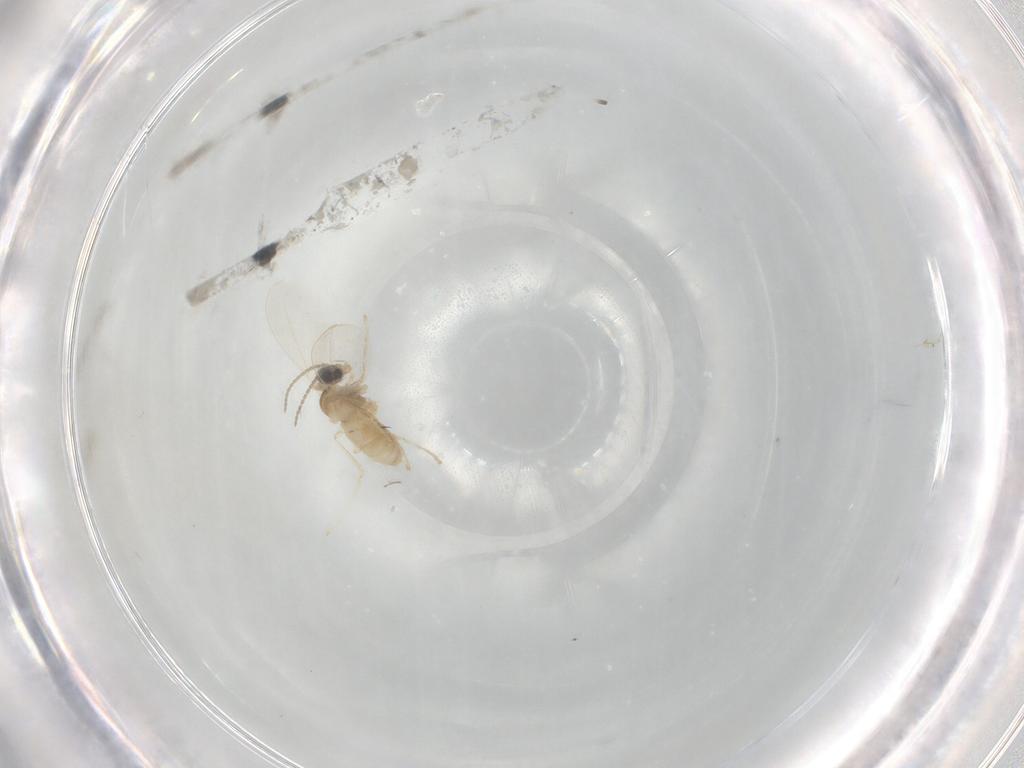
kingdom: Animalia
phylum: Arthropoda
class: Insecta
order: Diptera
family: Cecidomyiidae
